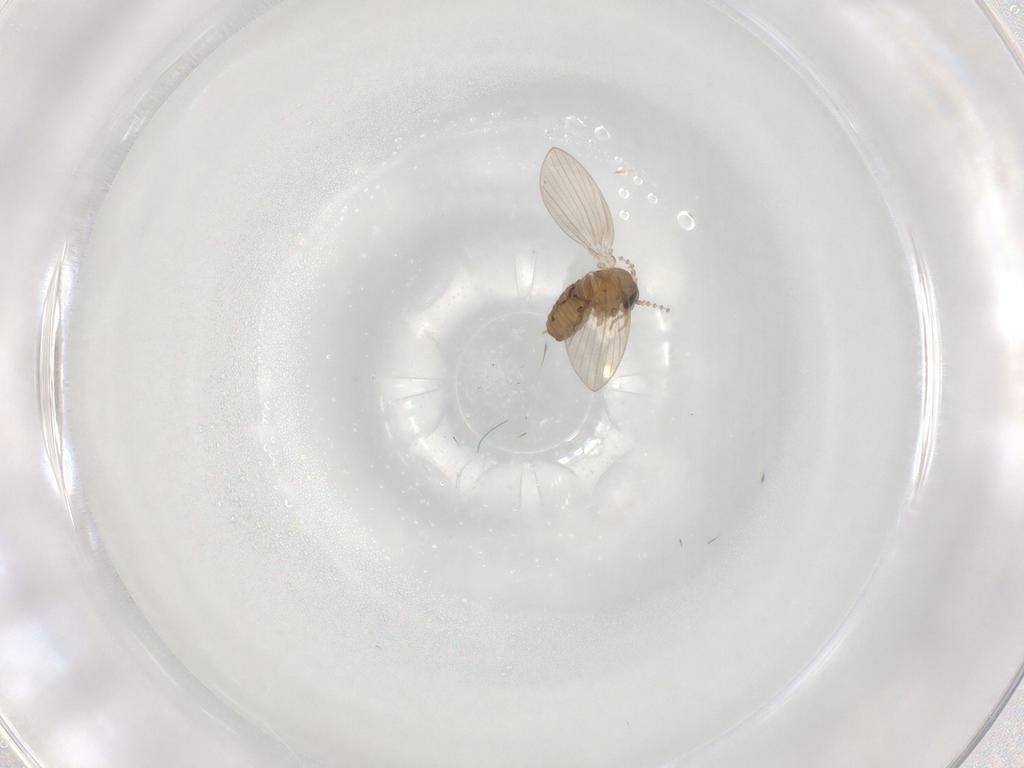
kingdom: Animalia
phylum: Arthropoda
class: Insecta
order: Diptera
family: Psychodidae
